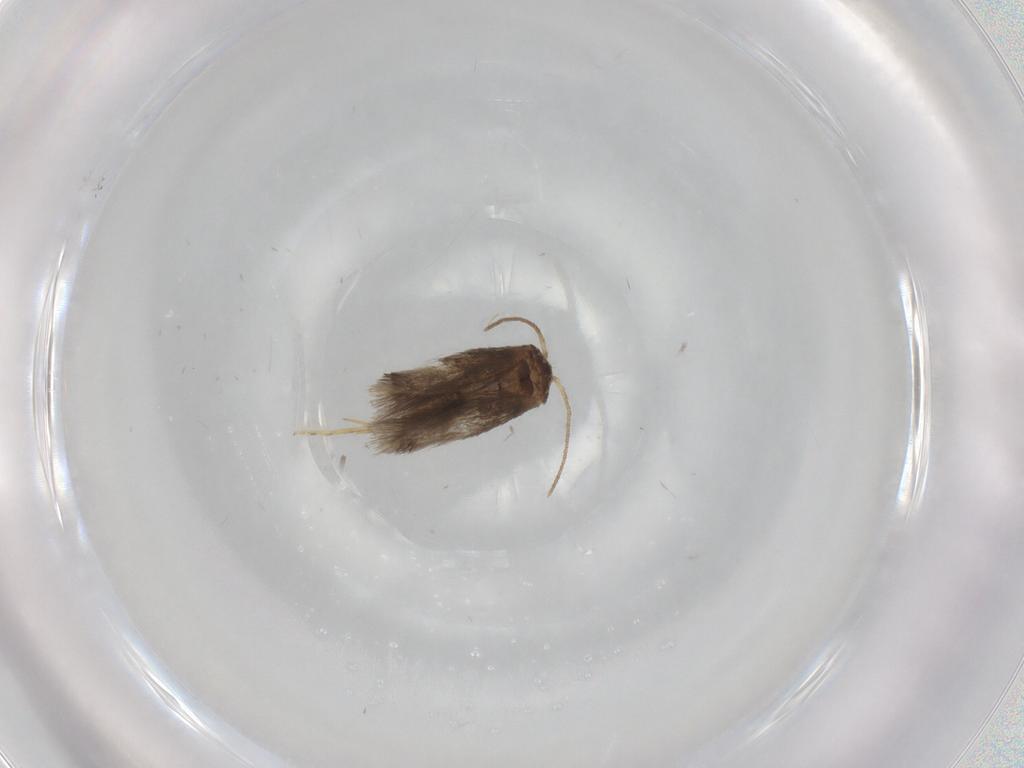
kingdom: Animalia
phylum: Arthropoda
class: Insecta
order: Lepidoptera
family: Nepticulidae
